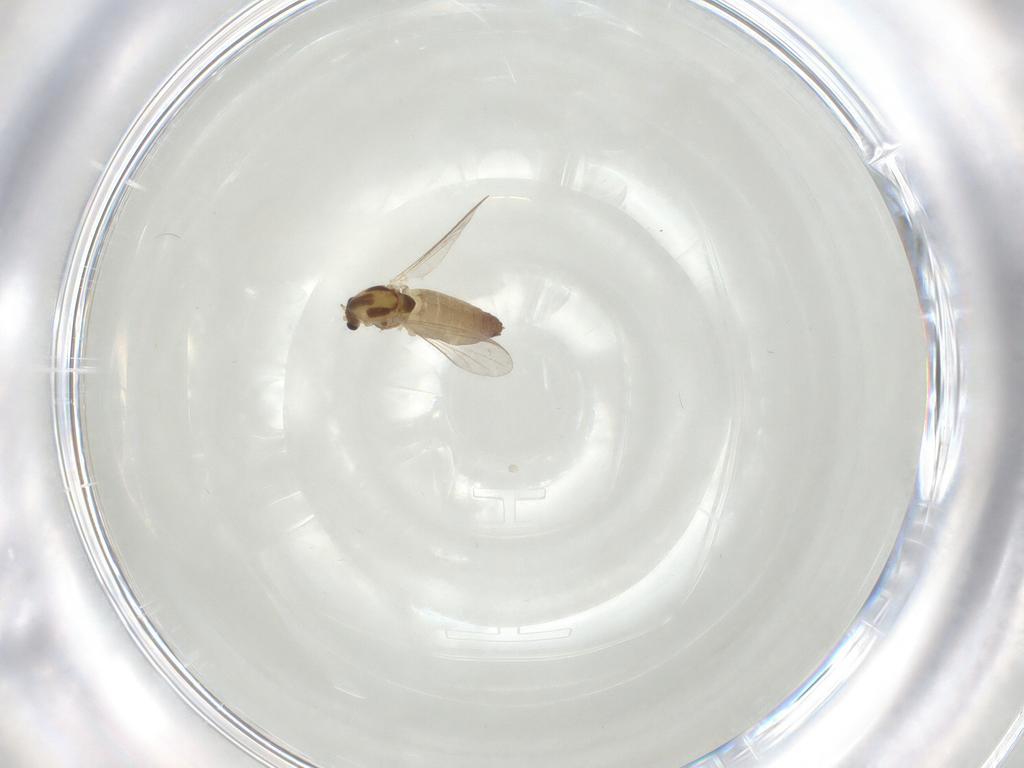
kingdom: Animalia
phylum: Arthropoda
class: Insecta
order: Diptera
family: Chironomidae
